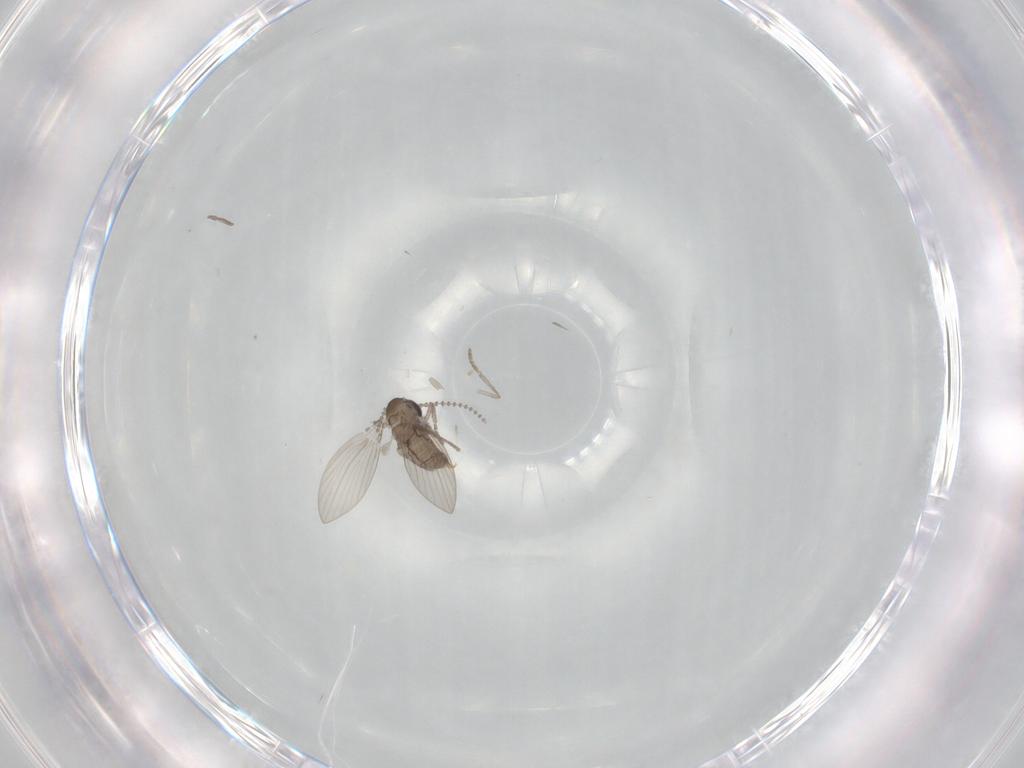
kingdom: Animalia
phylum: Arthropoda
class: Insecta
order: Diptera
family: Psychodidae
